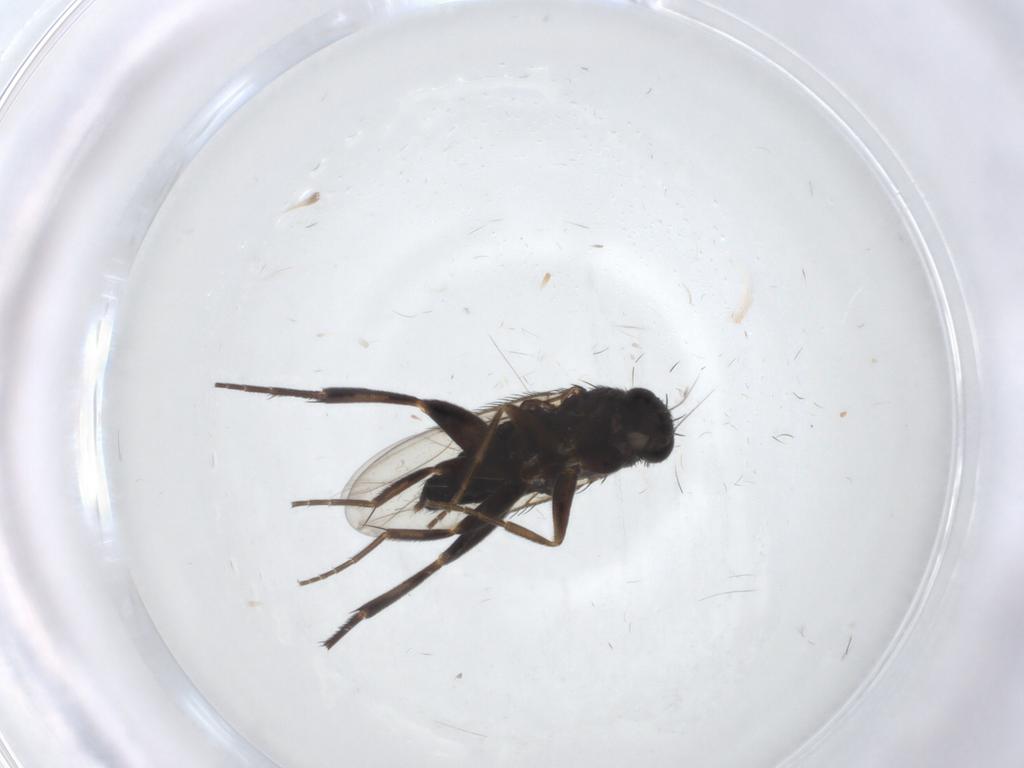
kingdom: Animalia
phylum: Arthropoda
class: Insecta
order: Diptera
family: Phoridae
